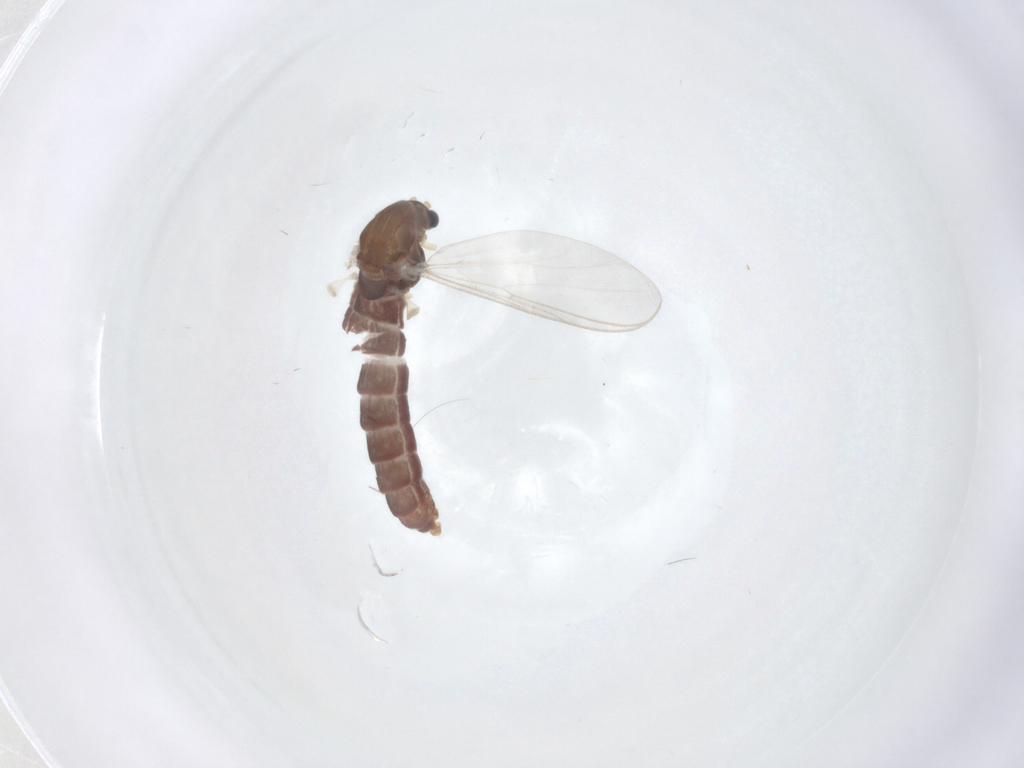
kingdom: Animalia
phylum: Arthropoda
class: Insecta
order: Diptera
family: Chironomidae
